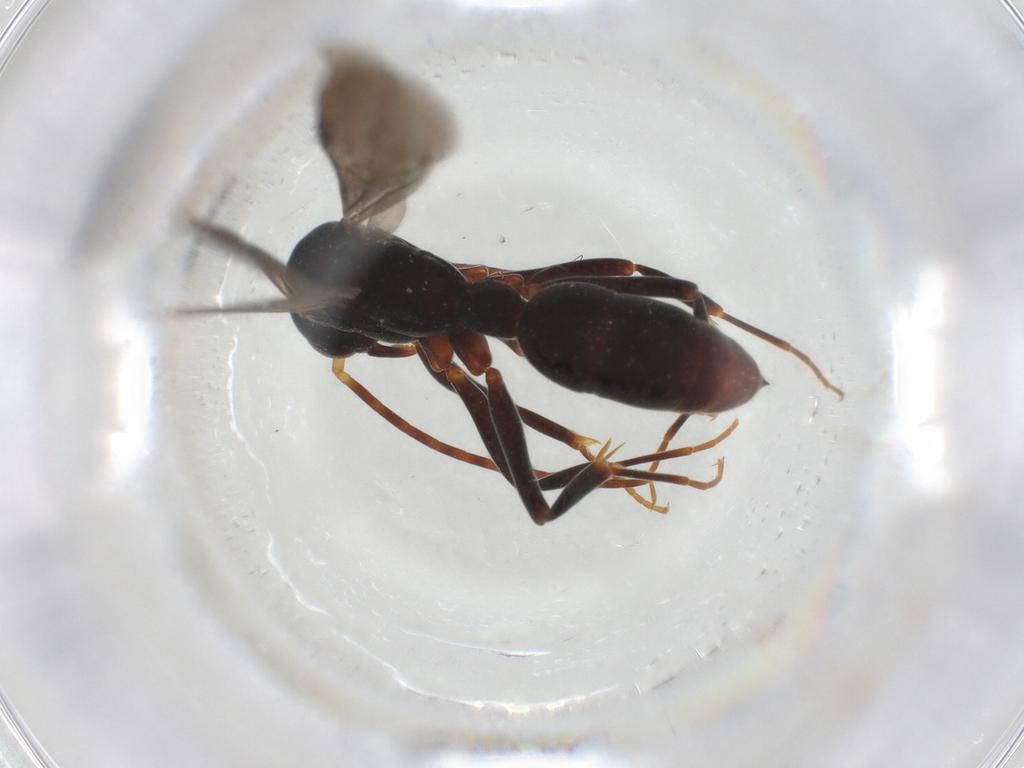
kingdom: Animalia
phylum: Arthropoda
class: Insecta
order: Hymenoptera
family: Formicidae
